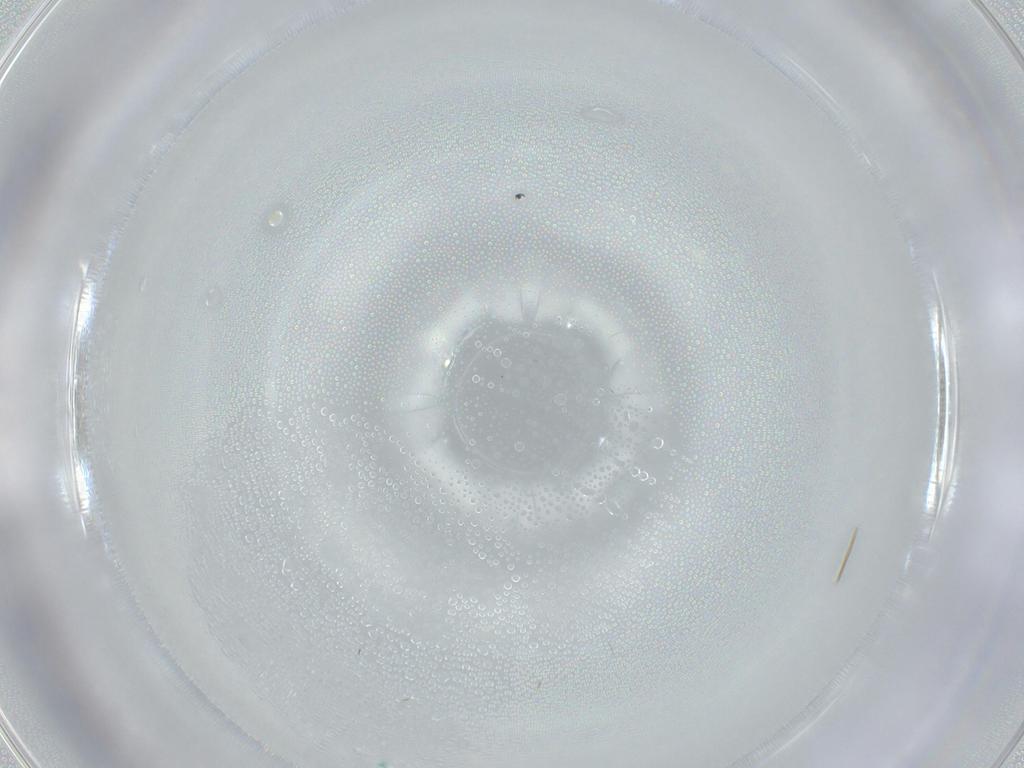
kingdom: Animalia
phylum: Arthropoda
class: Insecta
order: Diptera
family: Sciaridae
